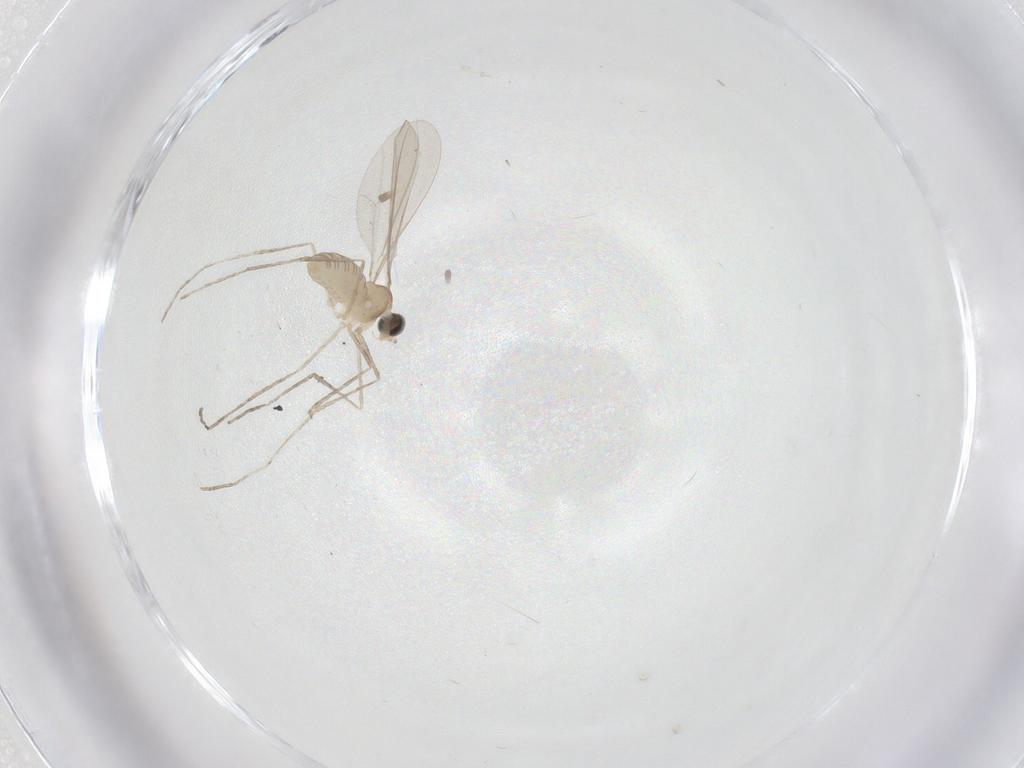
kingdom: Animalia
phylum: Arthropoda
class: Insecta
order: Diptera
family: Cecidomyiidae
